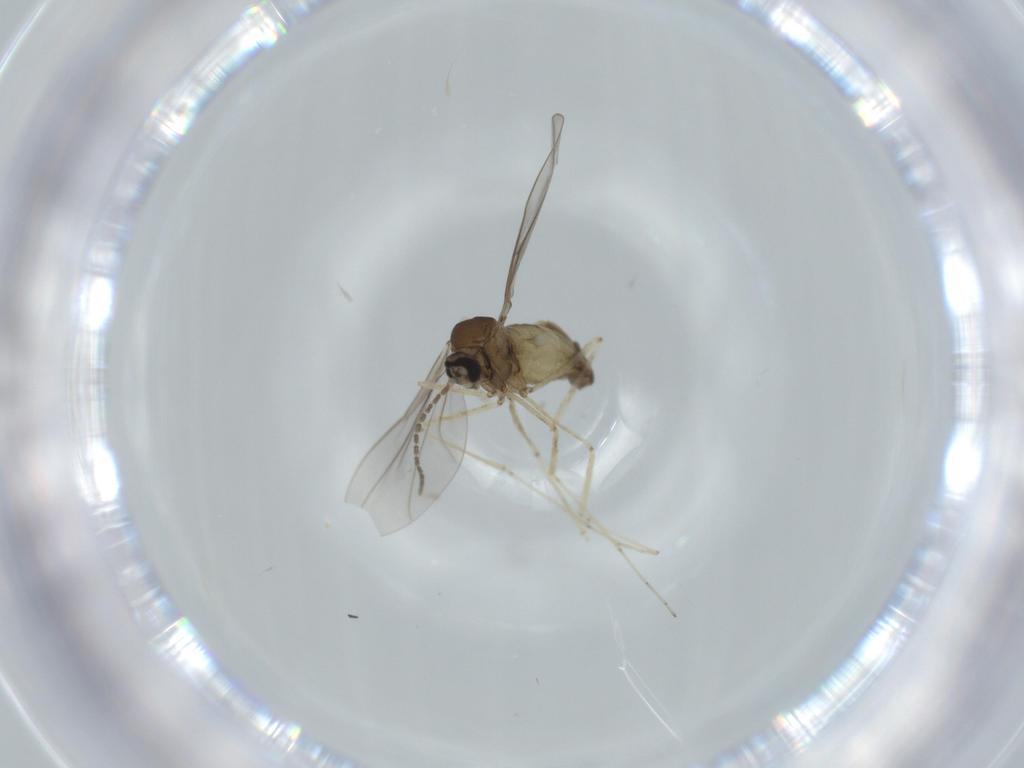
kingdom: Animalia
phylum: Arthropoda
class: Insecta
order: Diptera
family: Cecidomyiidae
